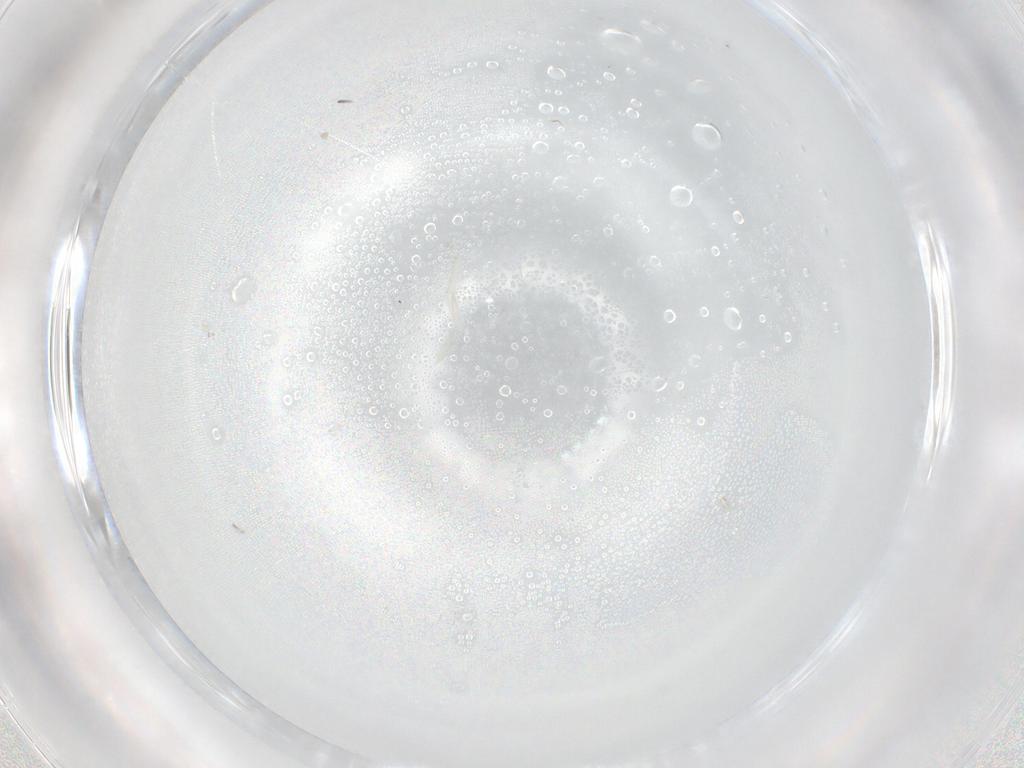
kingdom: Animalia
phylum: Arthropoda
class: Insecta
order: Diptera
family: Cecidomyiidae
